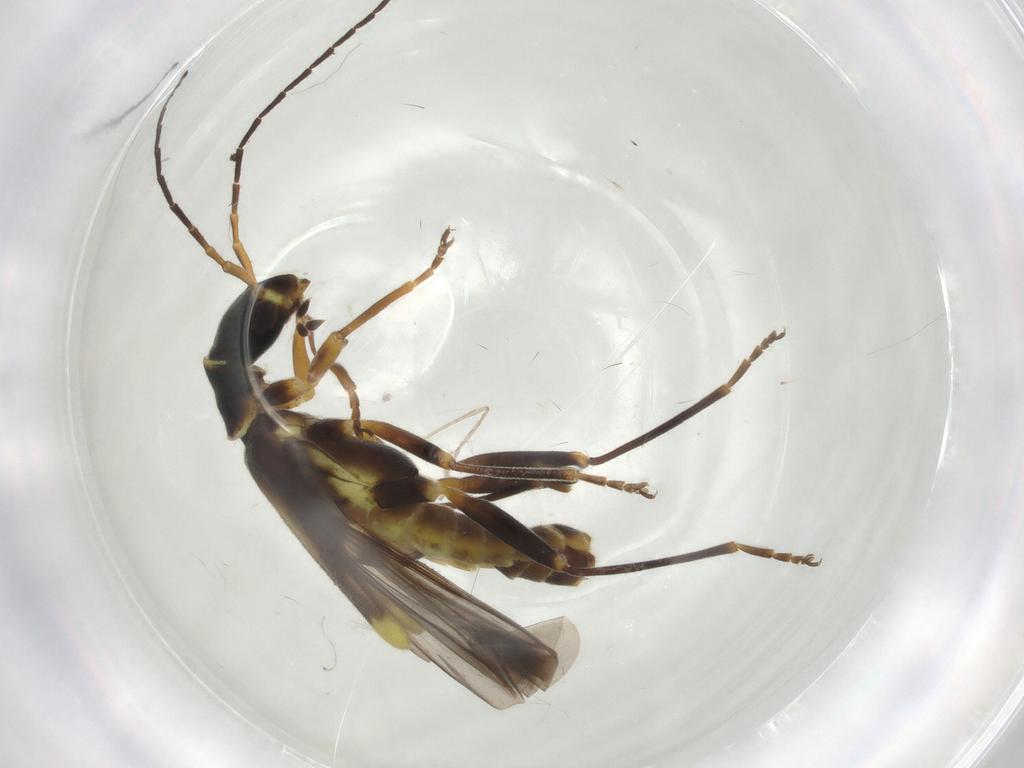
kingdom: Animalia
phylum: Arthropoda
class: Insecta
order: Coleoptera
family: Cantharidae
